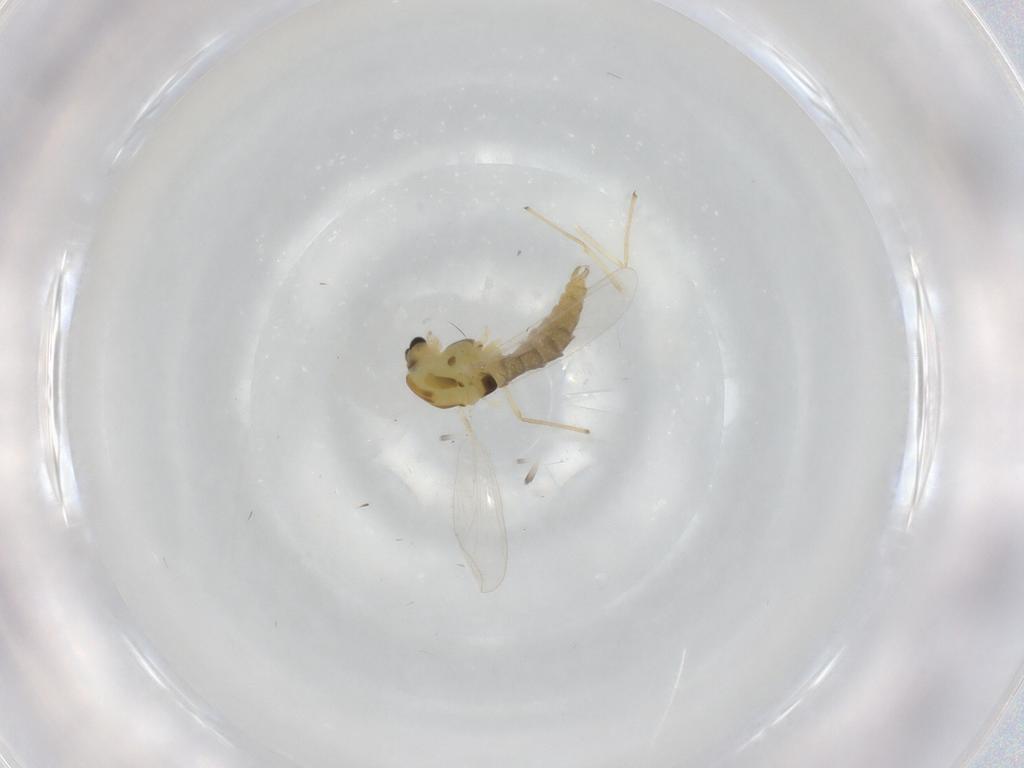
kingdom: Animalia
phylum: Arthropoda
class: Insecta
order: Diptera
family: Chironomidae
